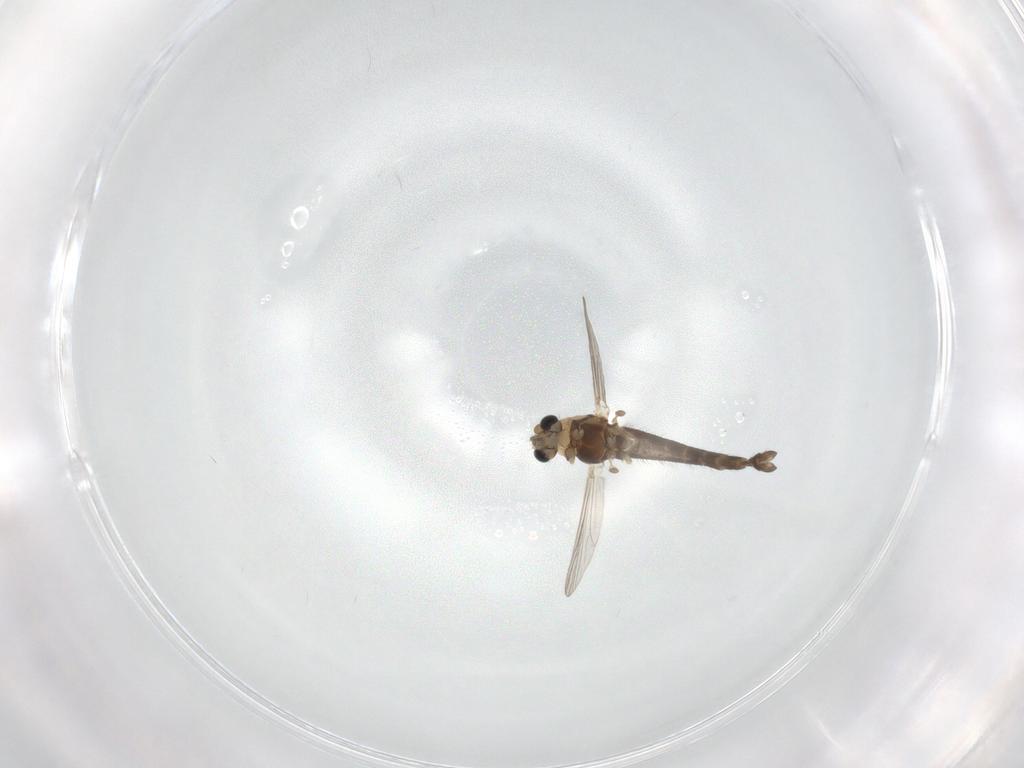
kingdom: Animalia
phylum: Arthropoda
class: Insecta
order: Diptera
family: Chironomidae
